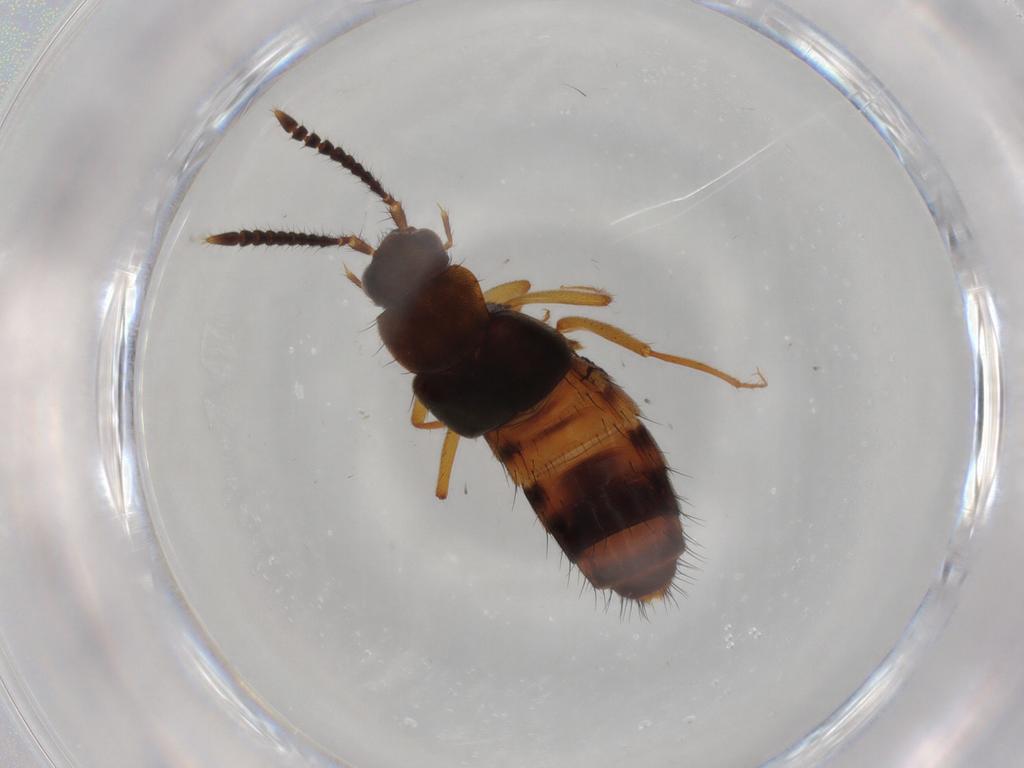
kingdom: Animalia
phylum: Arthropoda
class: Insecta
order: Coleoptera
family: Staphylinidae
